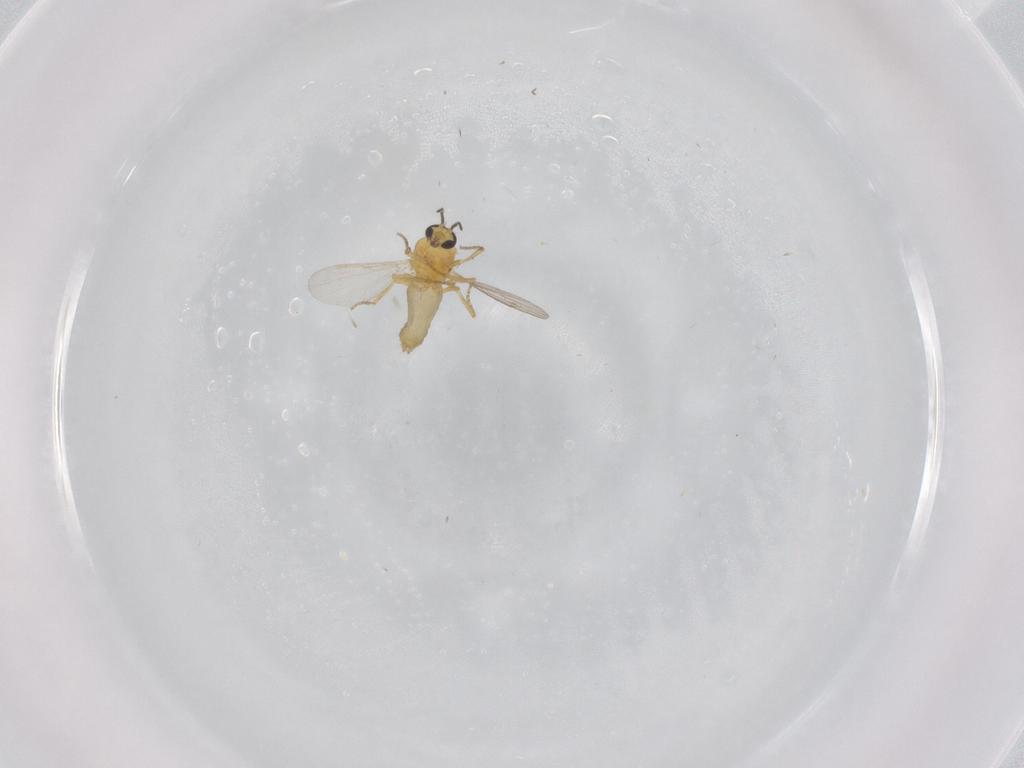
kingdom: Animalia
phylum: Arthropoda
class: Insecta
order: Diptera
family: Ceratopogonidae
